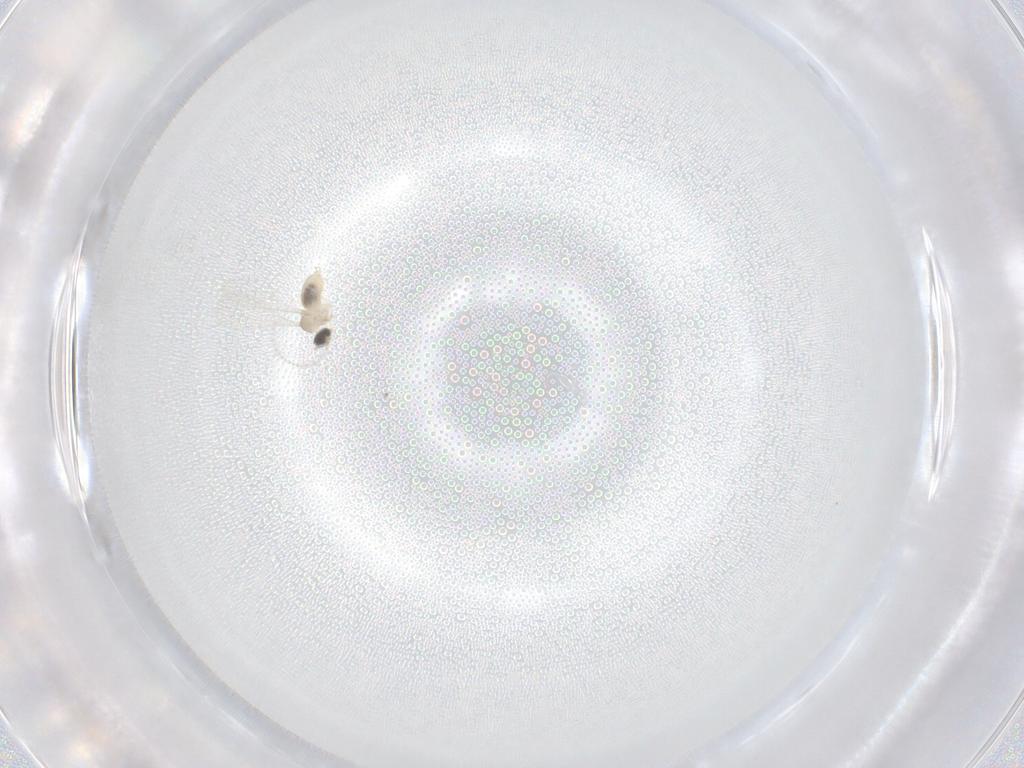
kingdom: Animalia
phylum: Arthropoda
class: Insecta
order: Diptera
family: Cecidomyiidae
